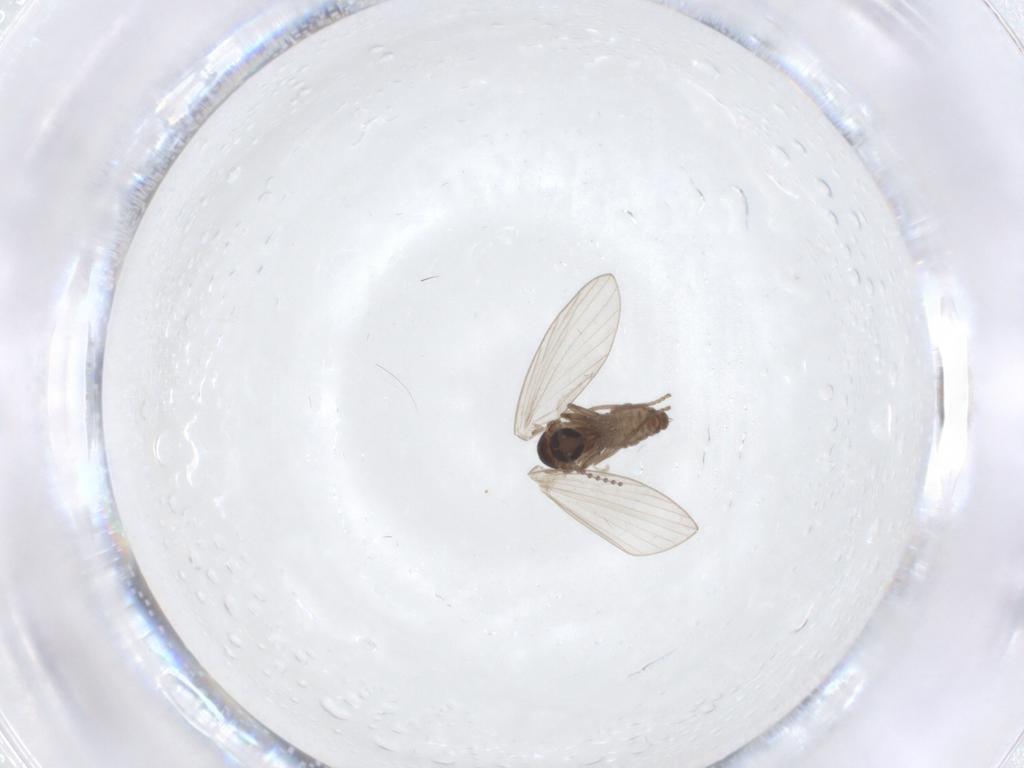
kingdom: Animalia
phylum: Arthropoda
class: Insecta
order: Diptera
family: Psychodidae
